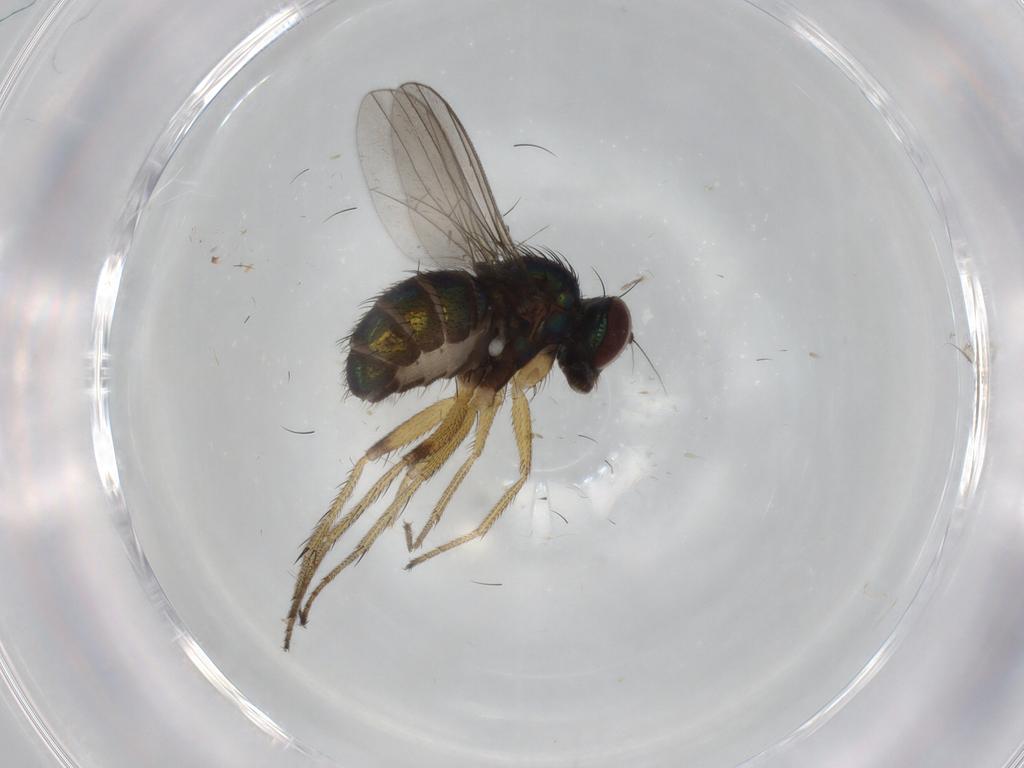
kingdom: Animalia
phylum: Arthropoda
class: Insecta
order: Diptera
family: Dolichopodidae
